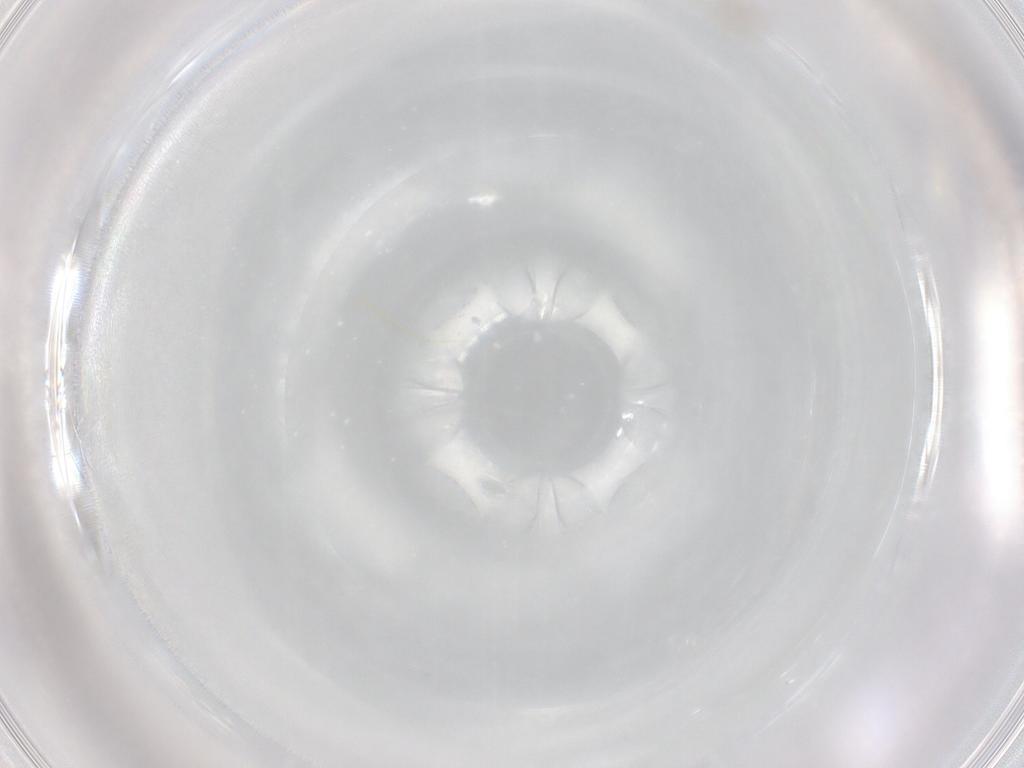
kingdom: Animalia
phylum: Arthropoda
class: Insecta
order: Diptera
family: Cecidomyiidae
